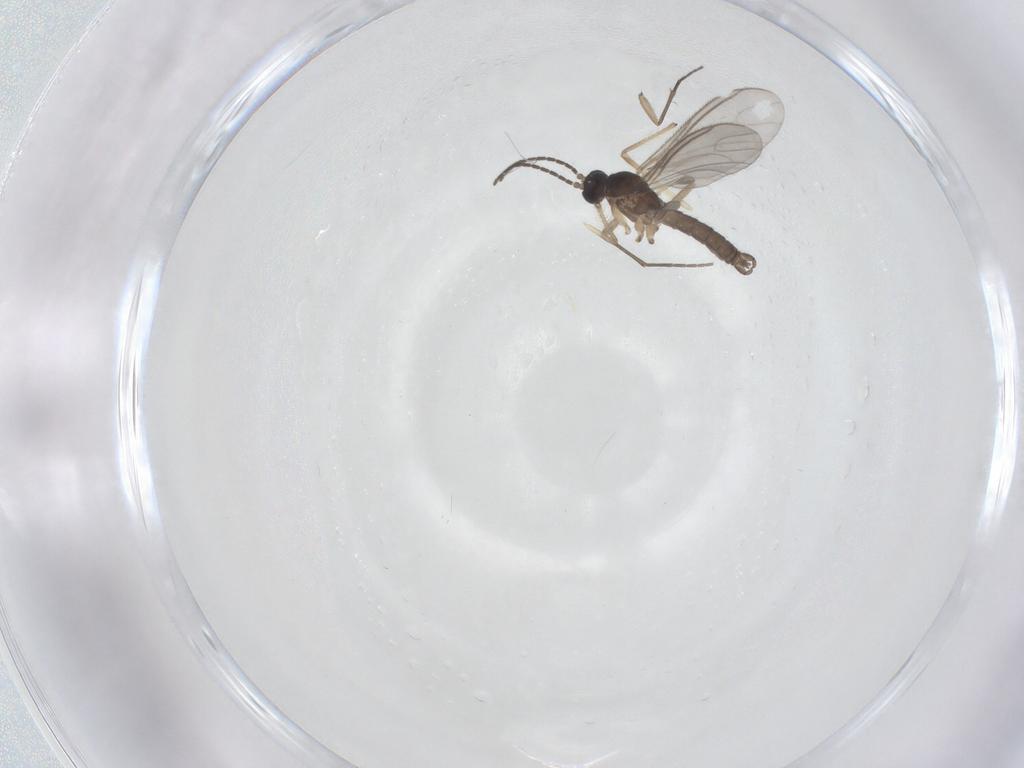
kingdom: Animalia
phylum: Arthropoda
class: Insecta
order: Diptera
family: Sciaridae
